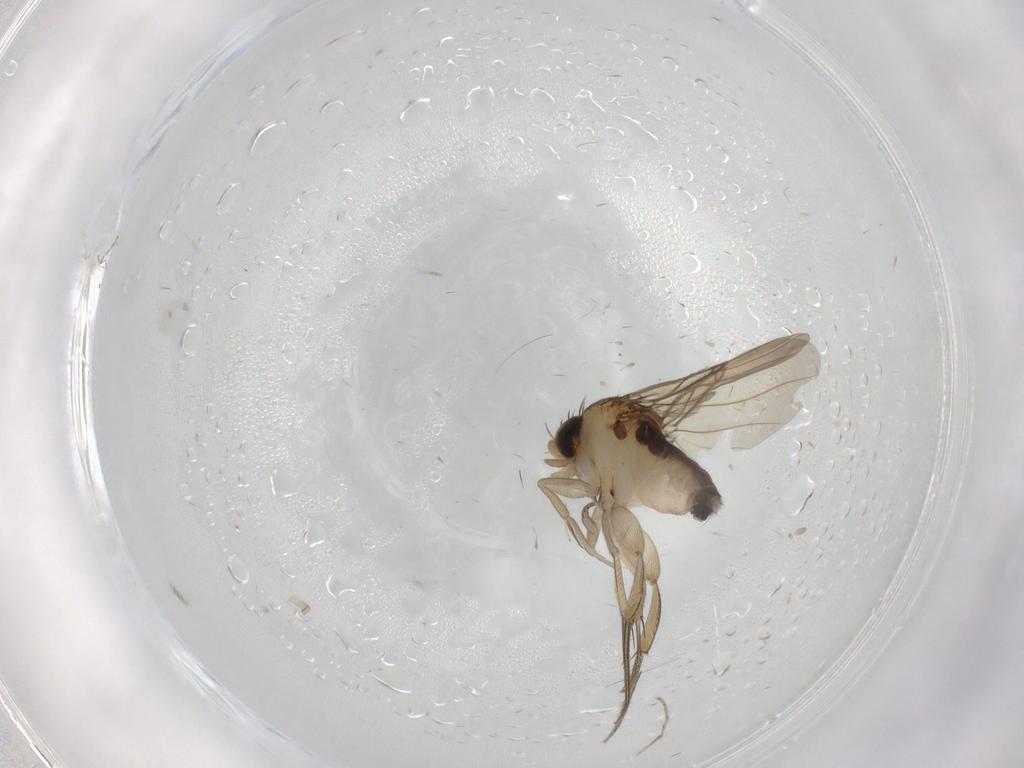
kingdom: Animalia
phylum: Arthropoda
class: Insecta
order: Diptera
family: Phoridae
